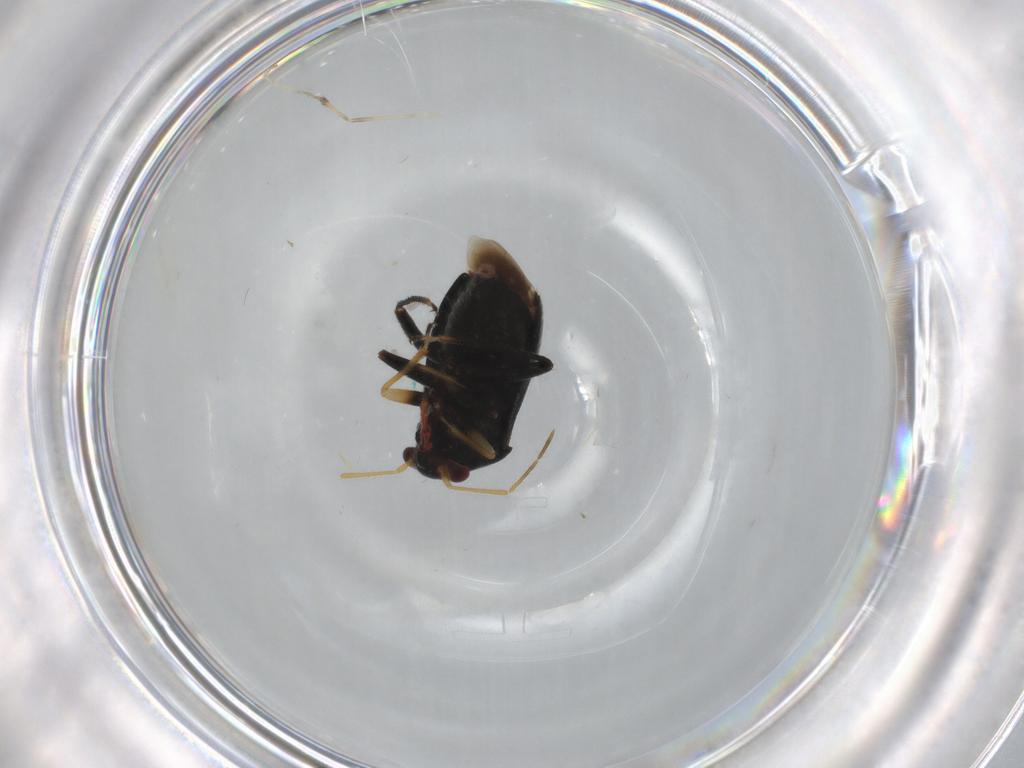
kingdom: Animalia
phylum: Arthropoda
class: Insecta
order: Hemiptera
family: Miridae
